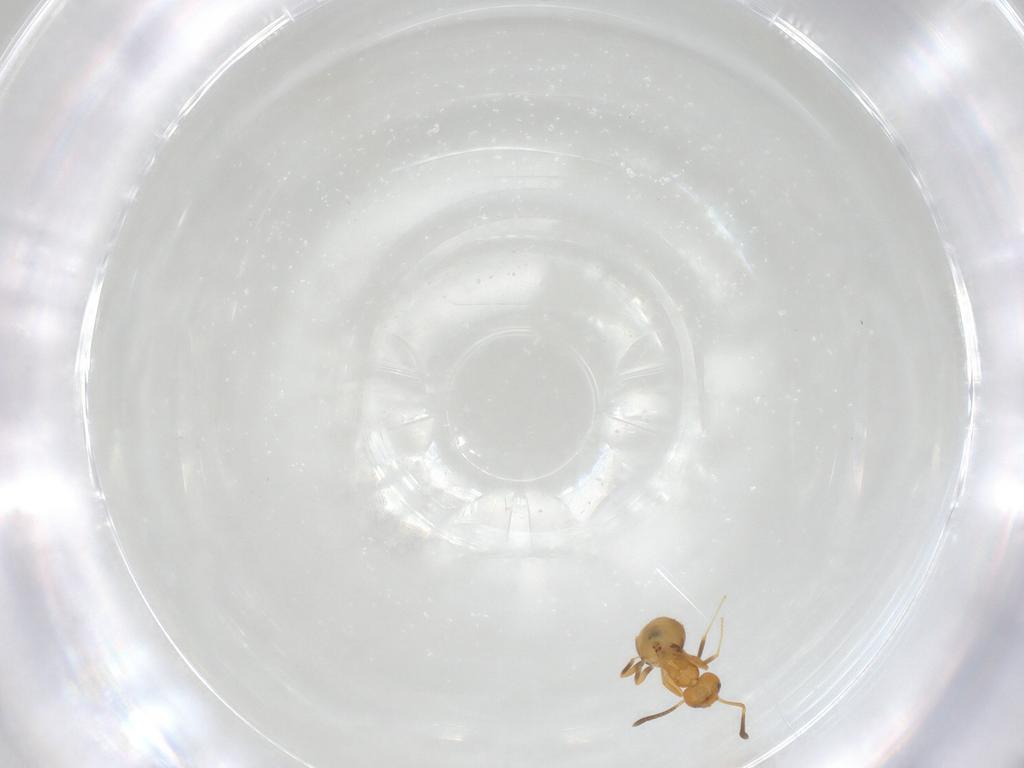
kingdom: Animalia
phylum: Arthropoda
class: Insecta
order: Hymenoptera
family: Formicidae
